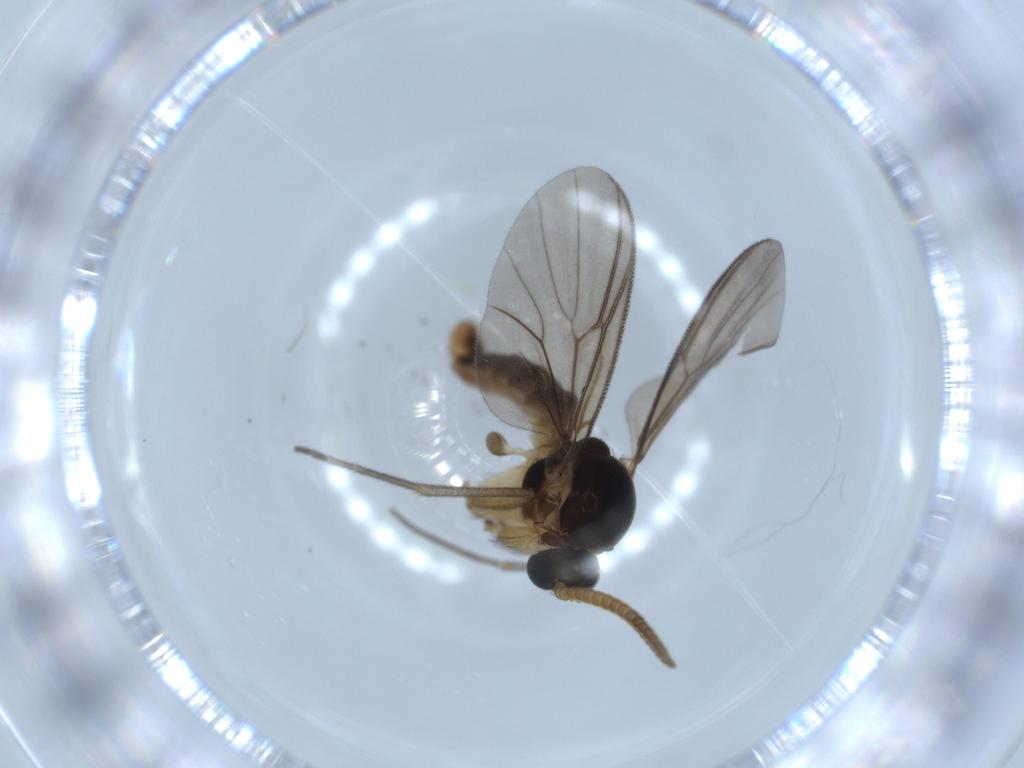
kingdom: Animalia
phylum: Arthropoda
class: Insecta
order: Diptera
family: Mycetophilidae
